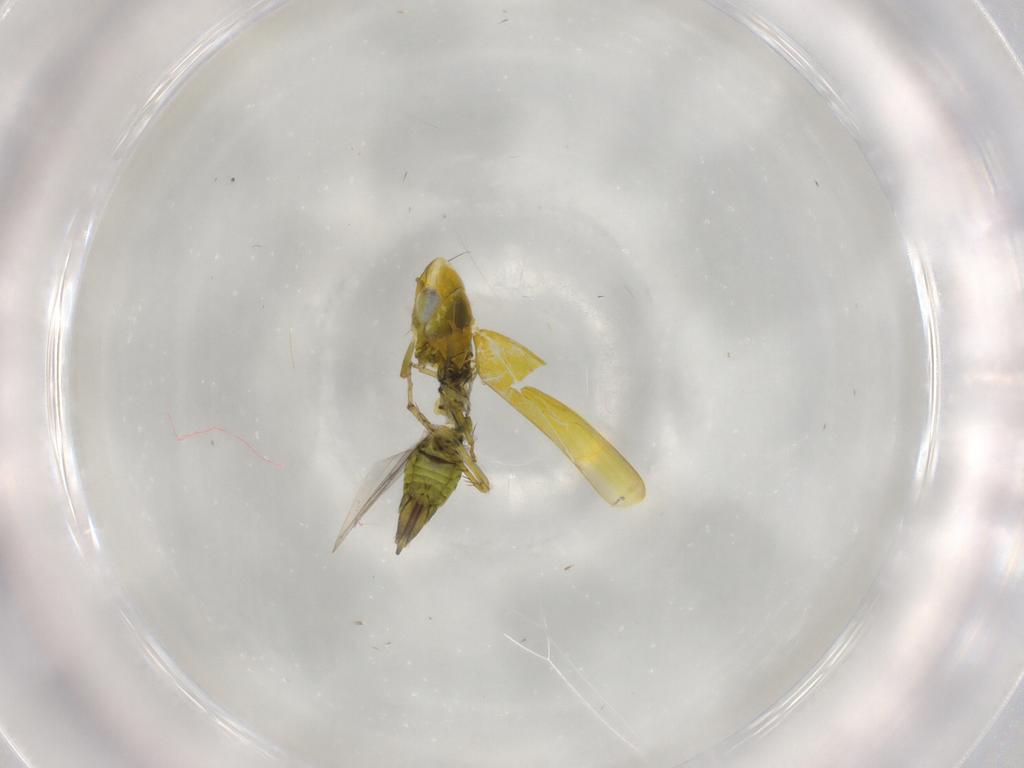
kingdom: Animalia
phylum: Arthropoda
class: Insecta
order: Hemiptera
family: Cicadellidae
